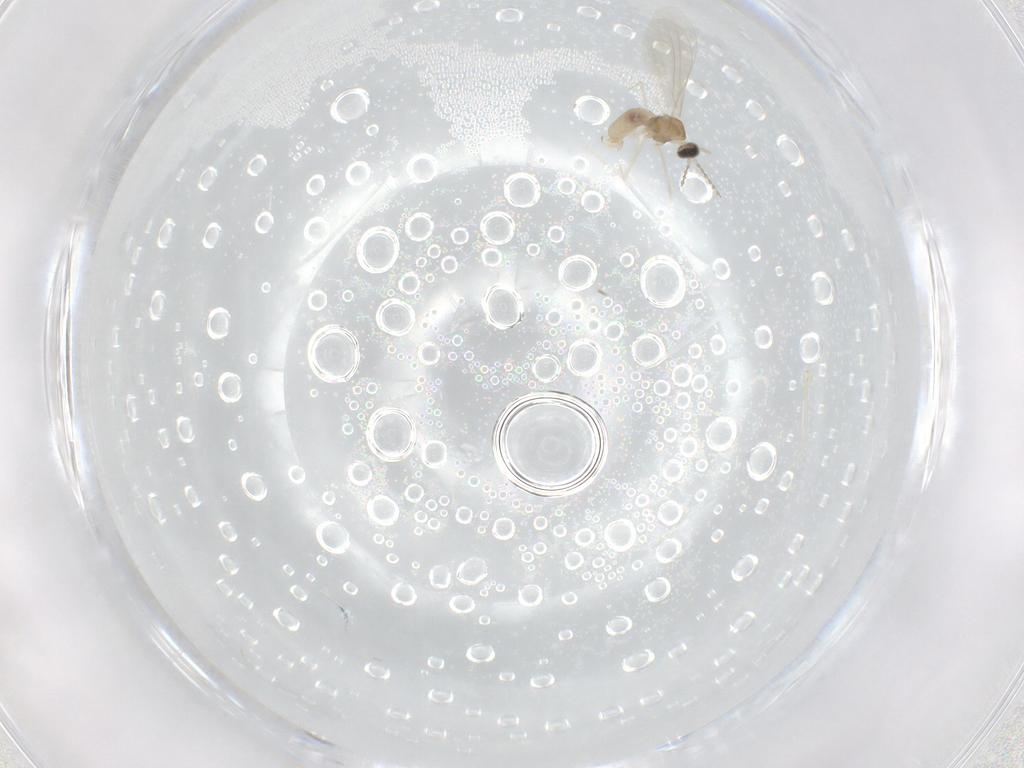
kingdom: Animalia
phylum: Arthropoda
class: Insecta
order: Diptera
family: Cecidomyiidae
